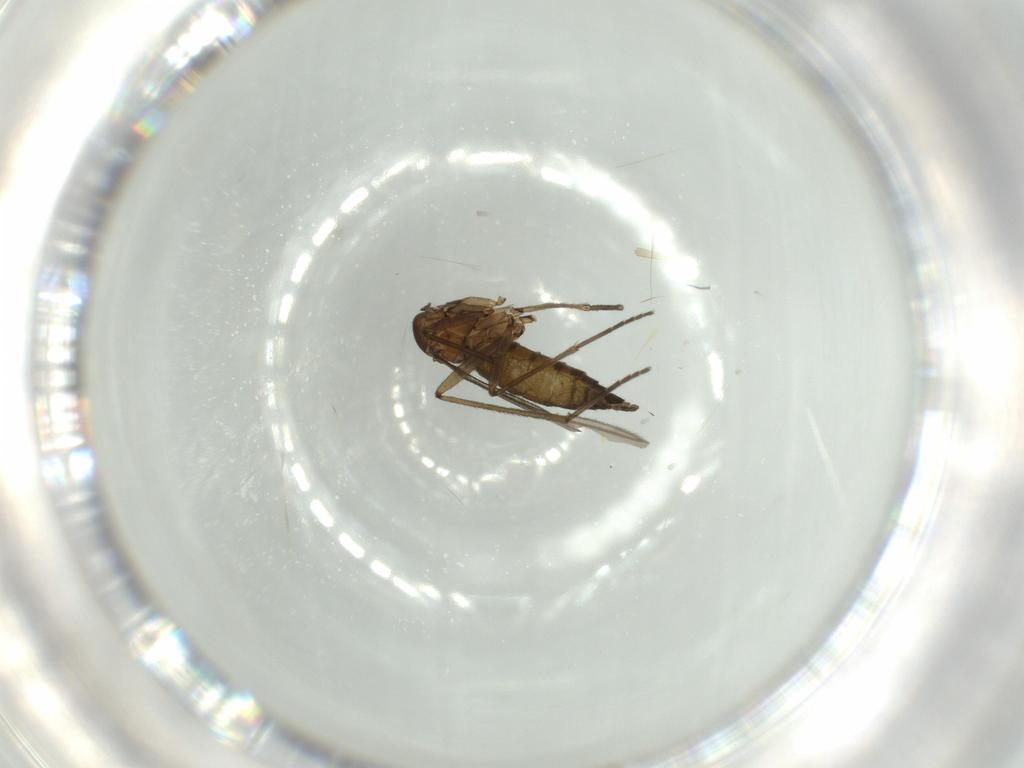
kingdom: Animalia
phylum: Arthropoda
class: Insecta
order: Diptera
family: Sciaridae
